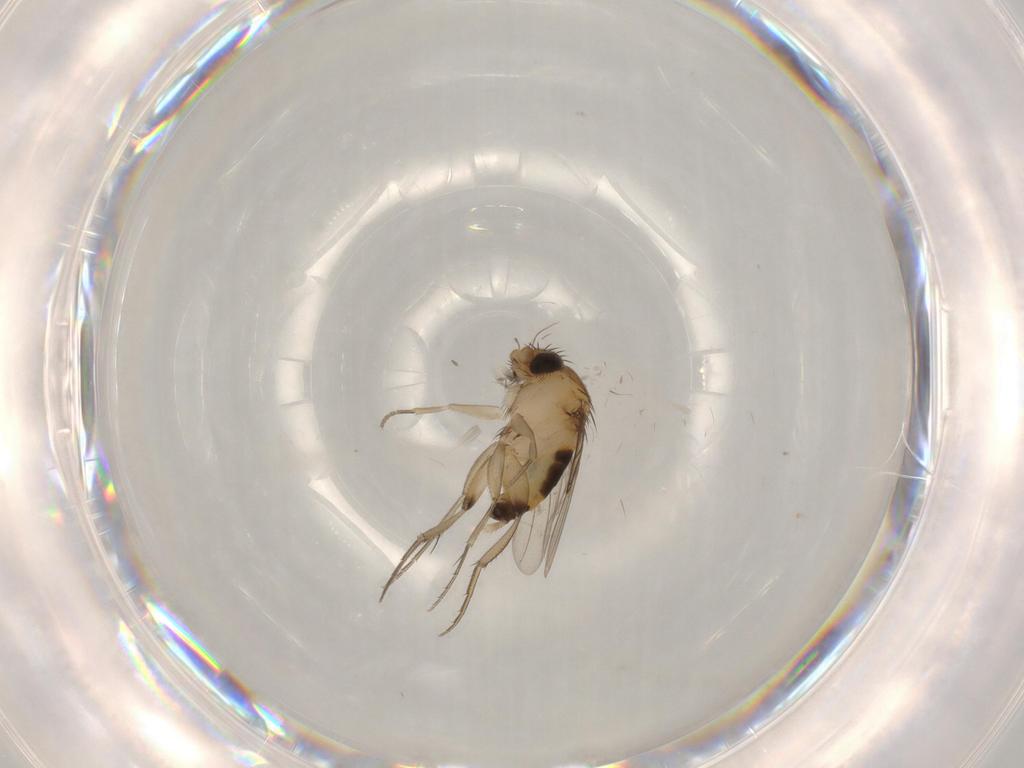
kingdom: Animalia
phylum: Arthropoda
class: Insecta
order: Diptera
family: Phoridae
